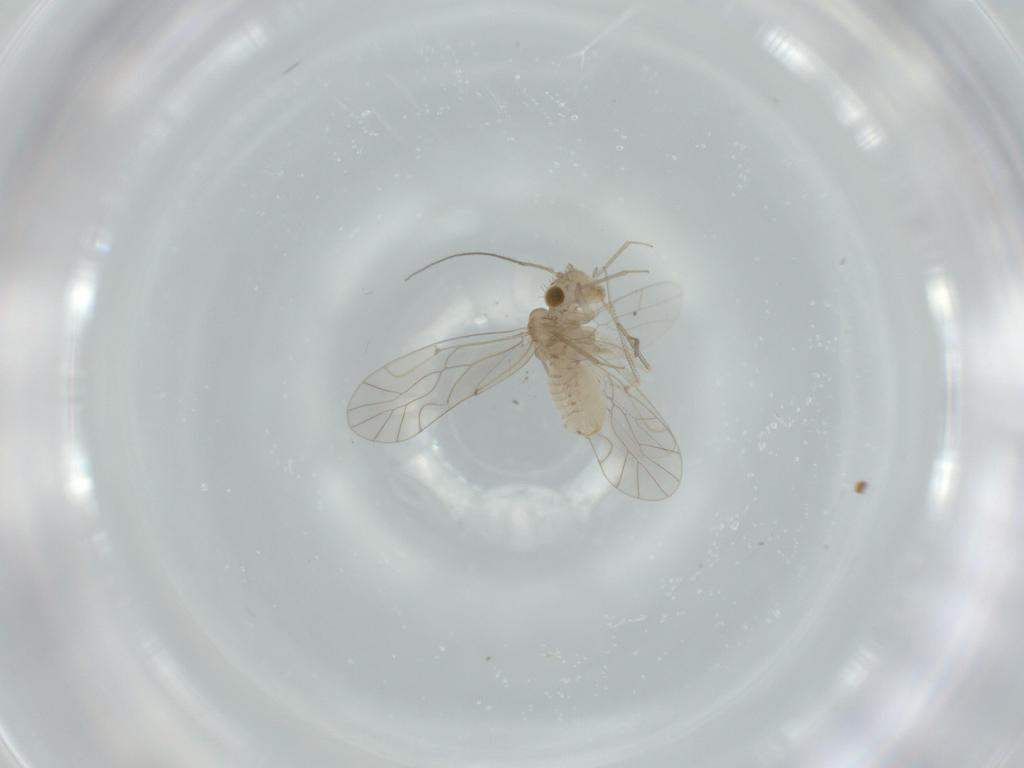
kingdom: Animalia
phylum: Arthropoda
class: Insecta
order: Psocodea
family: Lachesillidae
